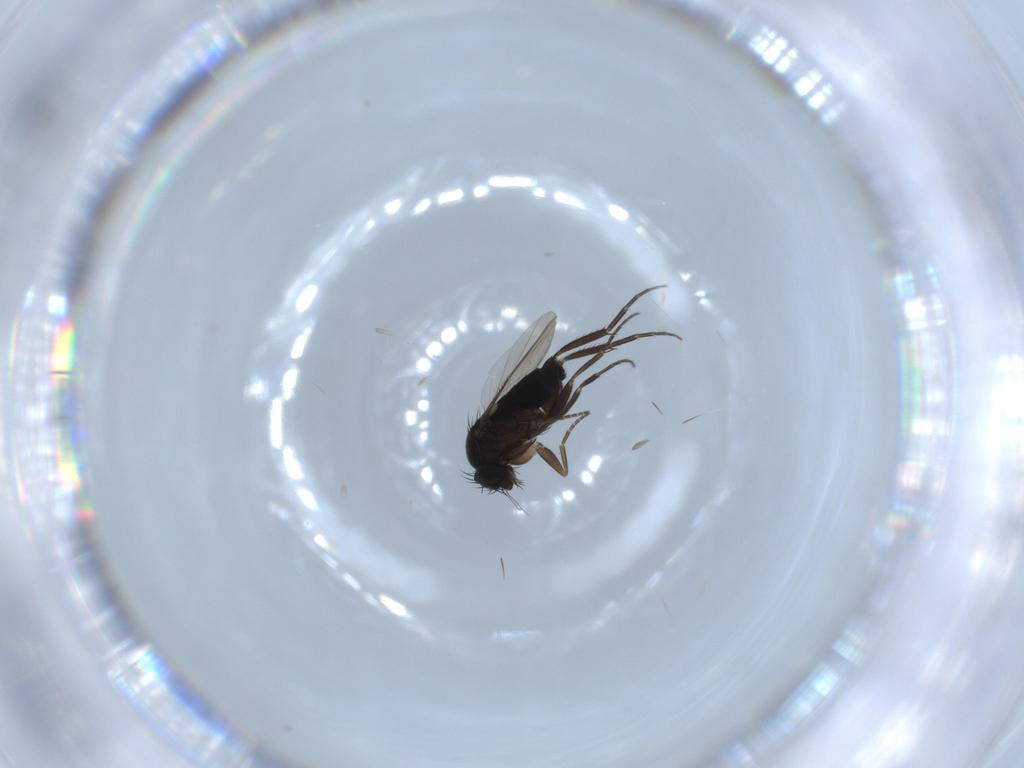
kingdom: Animalia
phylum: Arthropoda
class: Insecta
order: Diptera
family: Phoridae
